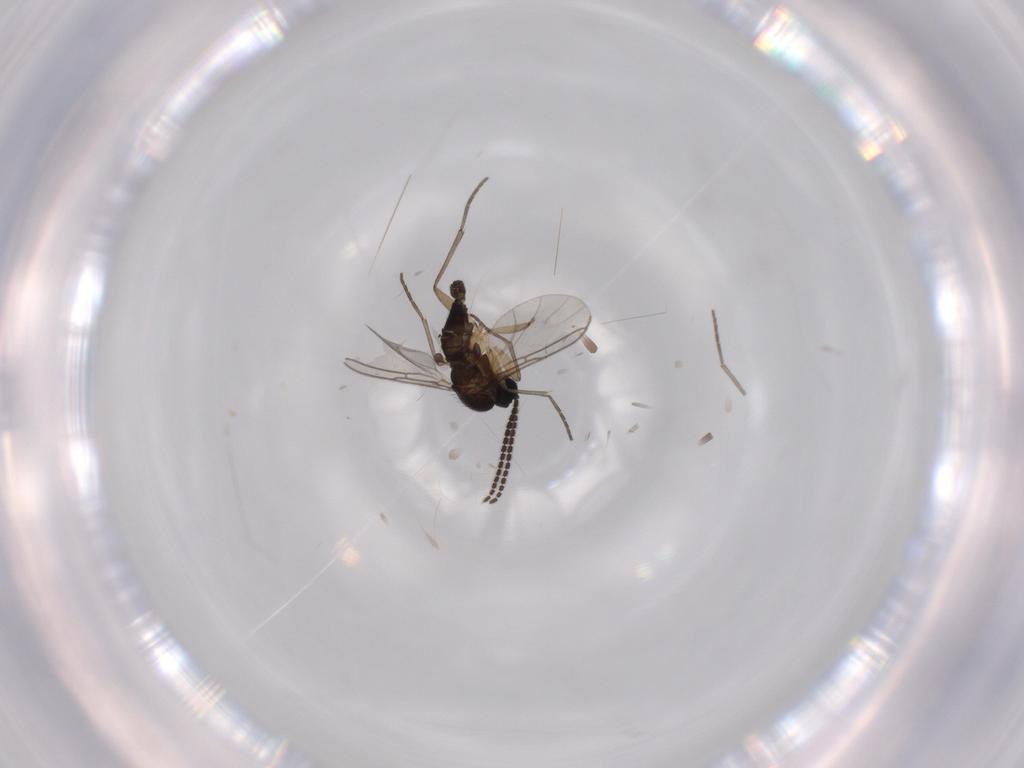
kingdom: Animalia
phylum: Arthropoda
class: Insecta
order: Diptera
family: Sciaridae
